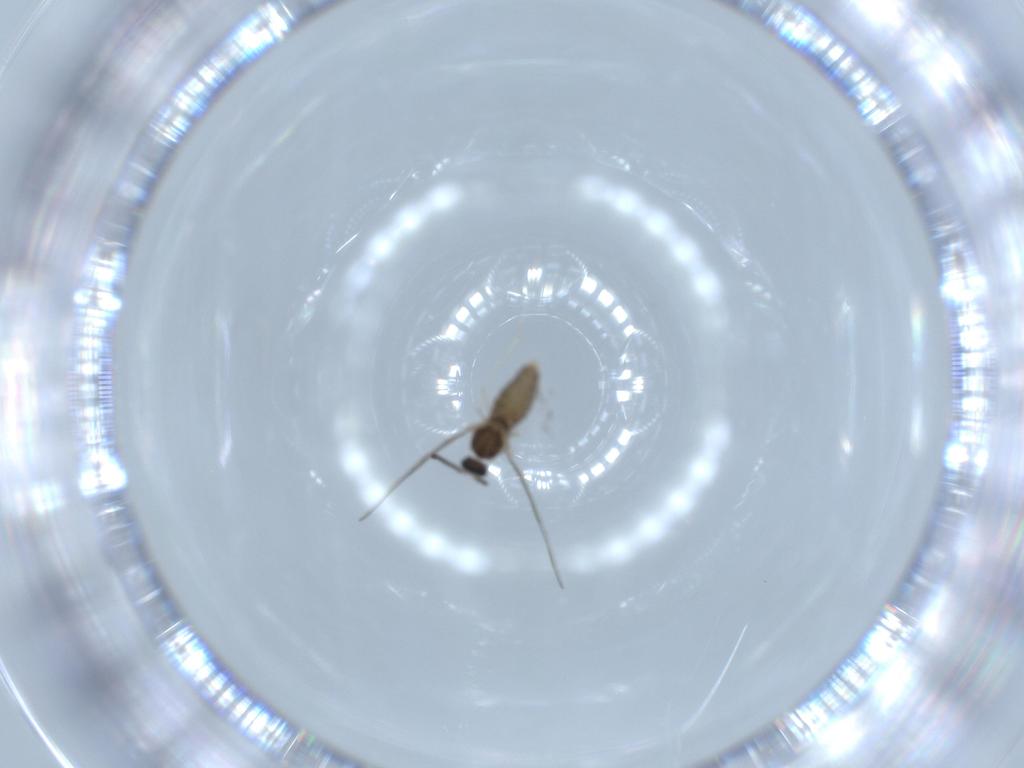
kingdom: Animalia
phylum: Arthropoda
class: Insecta
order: Diptera
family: Cecidomyiidae
